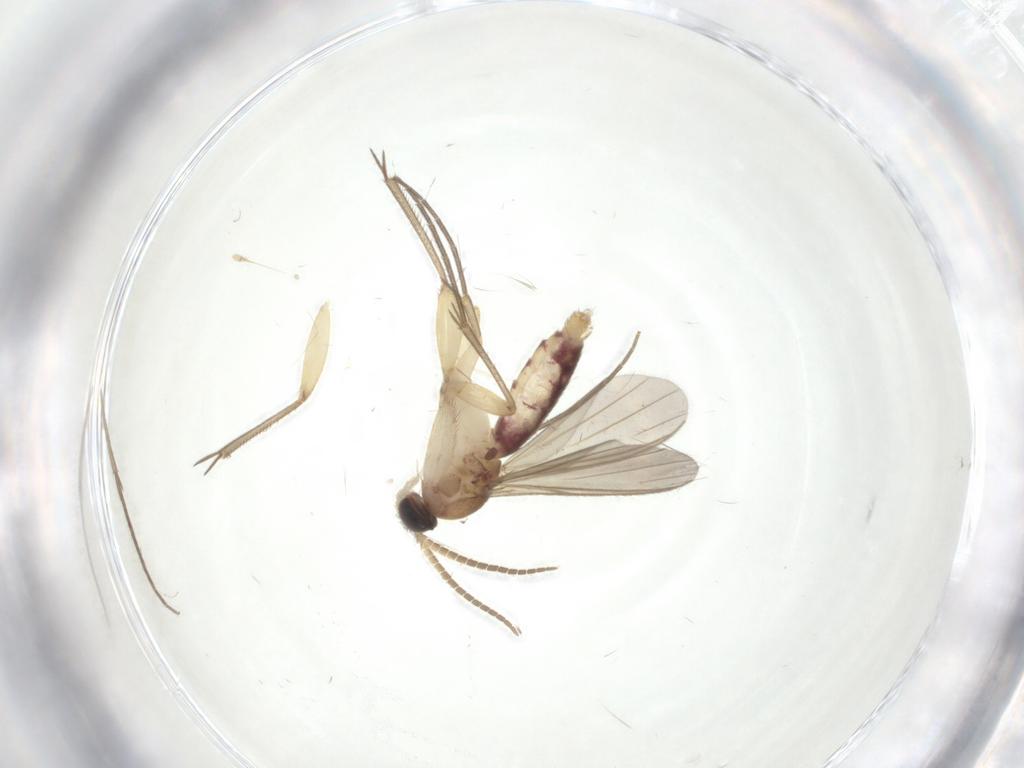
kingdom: Animalia
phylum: Arthropoda
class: Insecta
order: Diptera
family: Mycetophilidae
